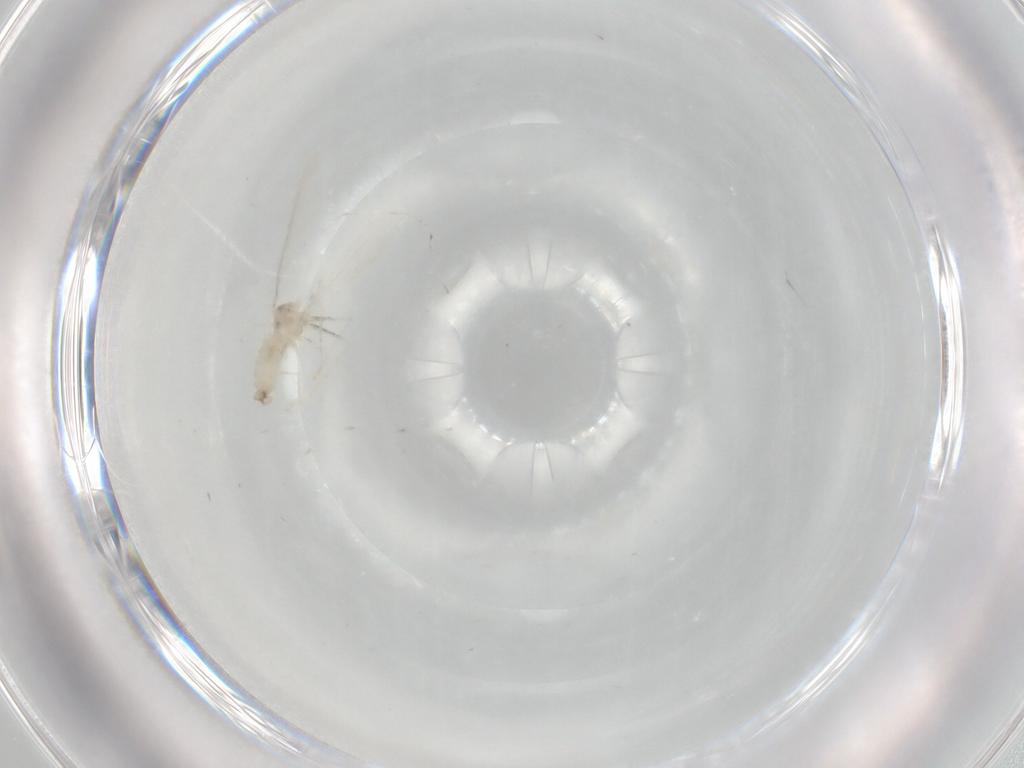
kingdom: Animalia
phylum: Arthropoda
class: Insecta
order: Diptera
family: Cecidomyiidae
